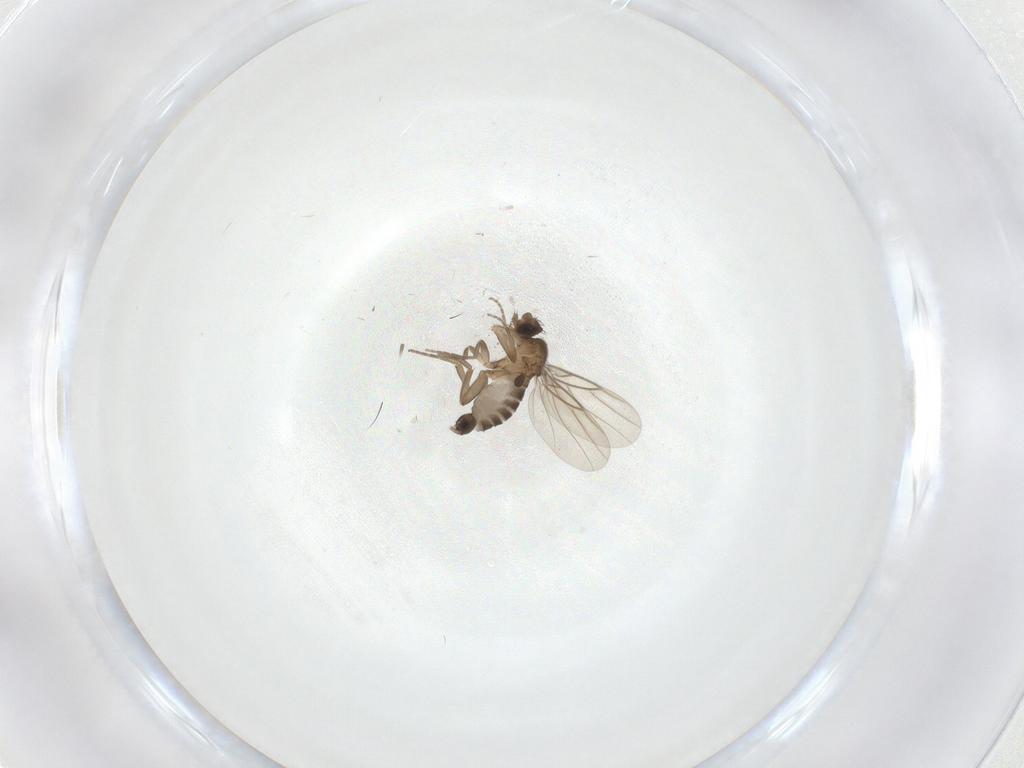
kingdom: Animalia
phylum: Arthropoda
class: Insecta
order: Diptera
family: Phoridae
